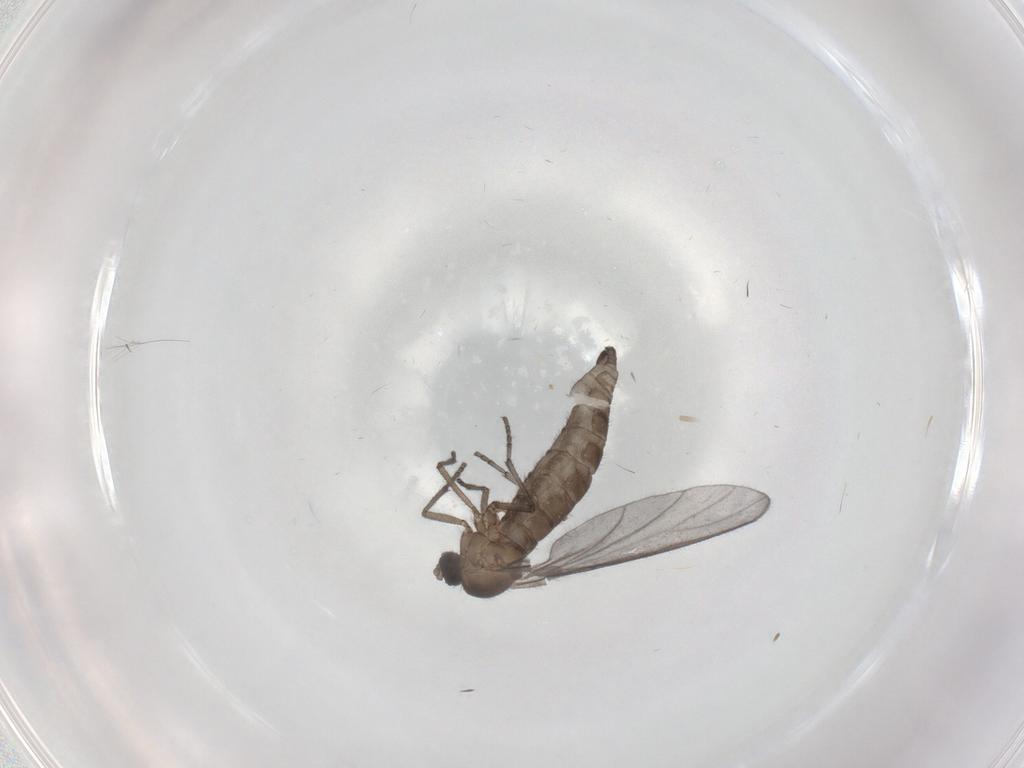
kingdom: Animalia
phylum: Arthropoda
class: Insecta
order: Diptera
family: Sciaridae
